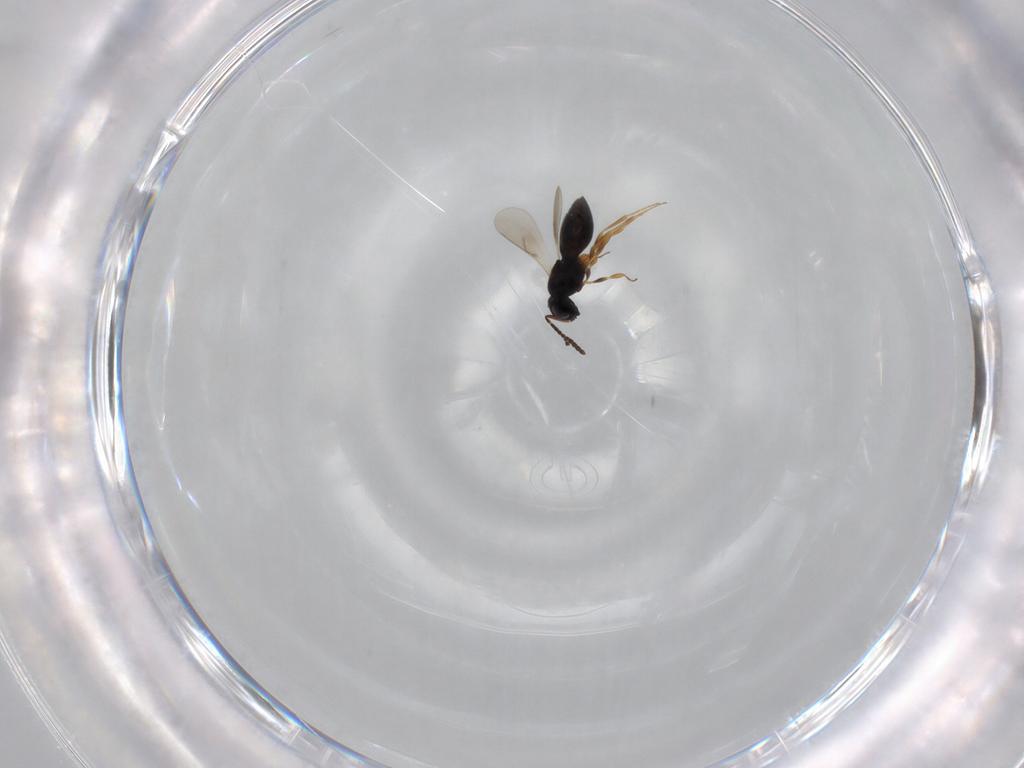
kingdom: Animalia
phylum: Arthropoda
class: Insecta
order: Hymenoptera
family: Scelionidae
